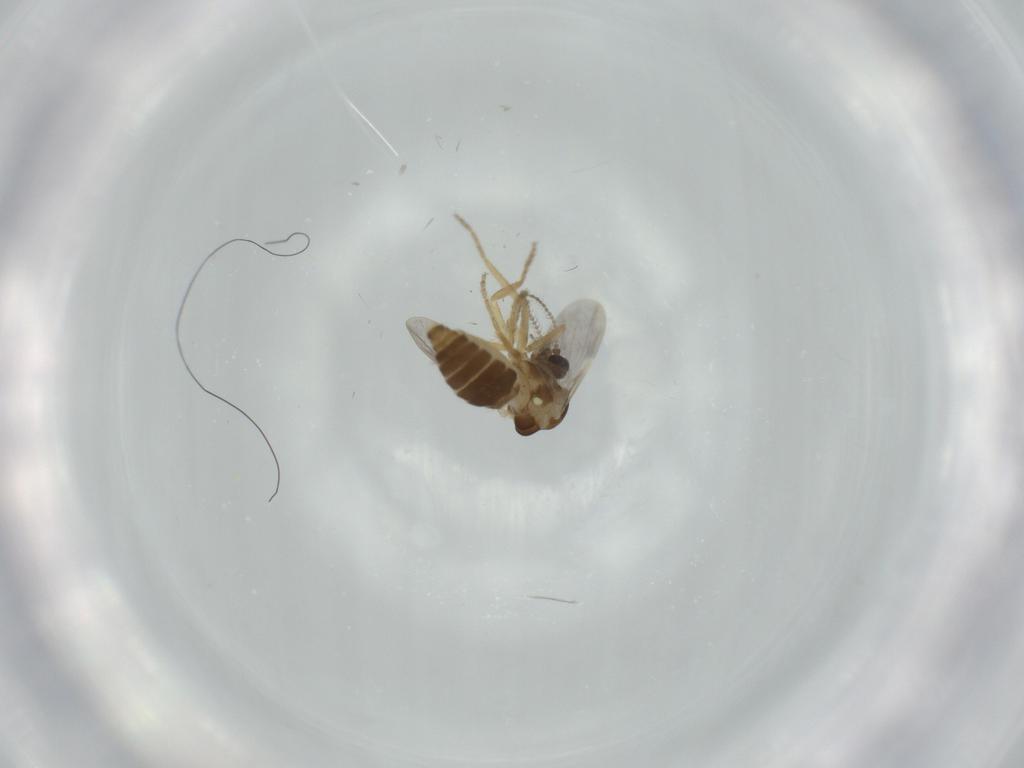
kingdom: Animalia
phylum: Arthropoda
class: Insecta
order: Diptera
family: Ceratopogonidae
